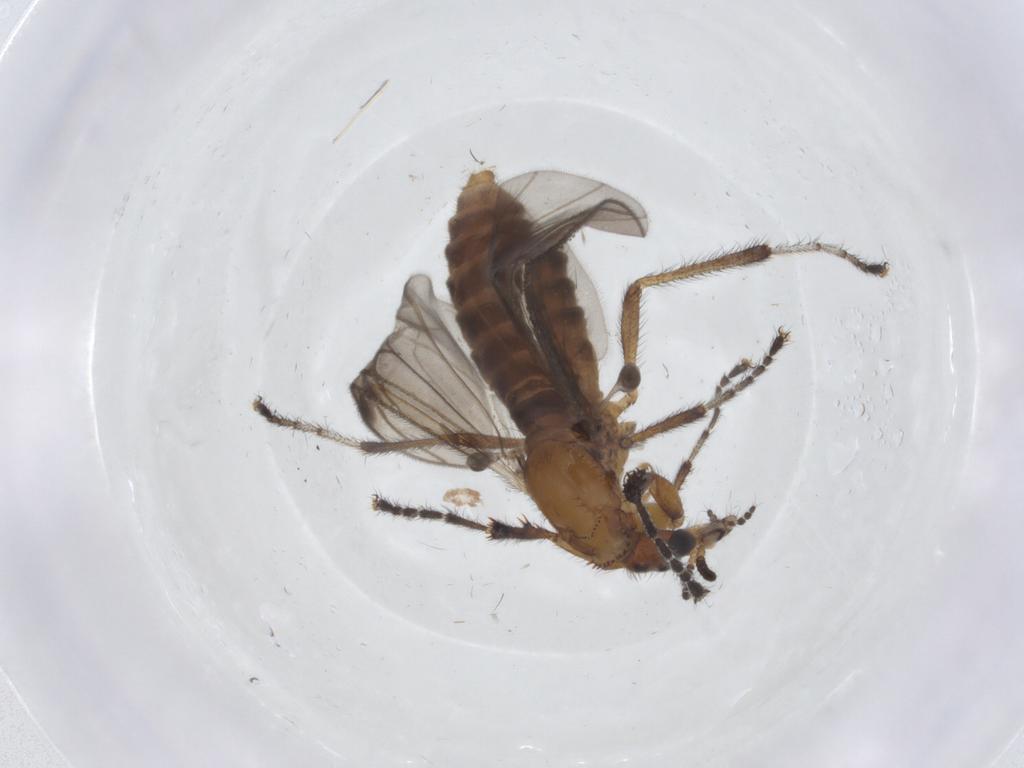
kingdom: Animalia
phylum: Arthropoda
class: Insecta
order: Diptera
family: Bibionidae
